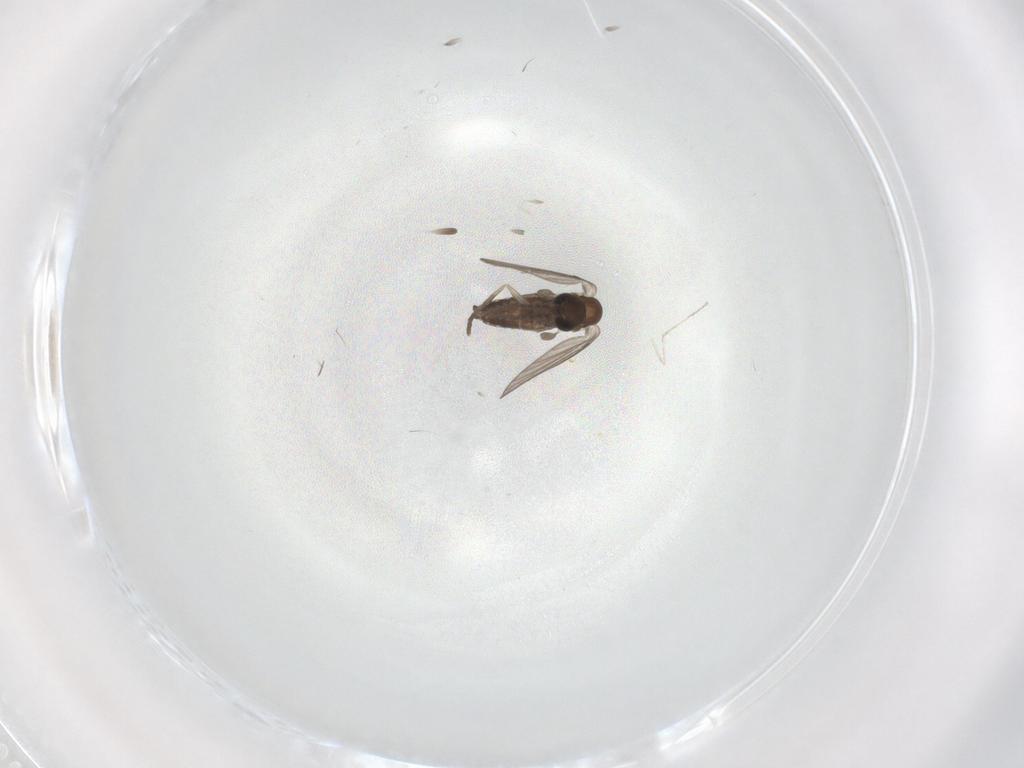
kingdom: Animalia
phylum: Arthropoda
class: Insecta
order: Diptera
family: Cecidomyiidae
